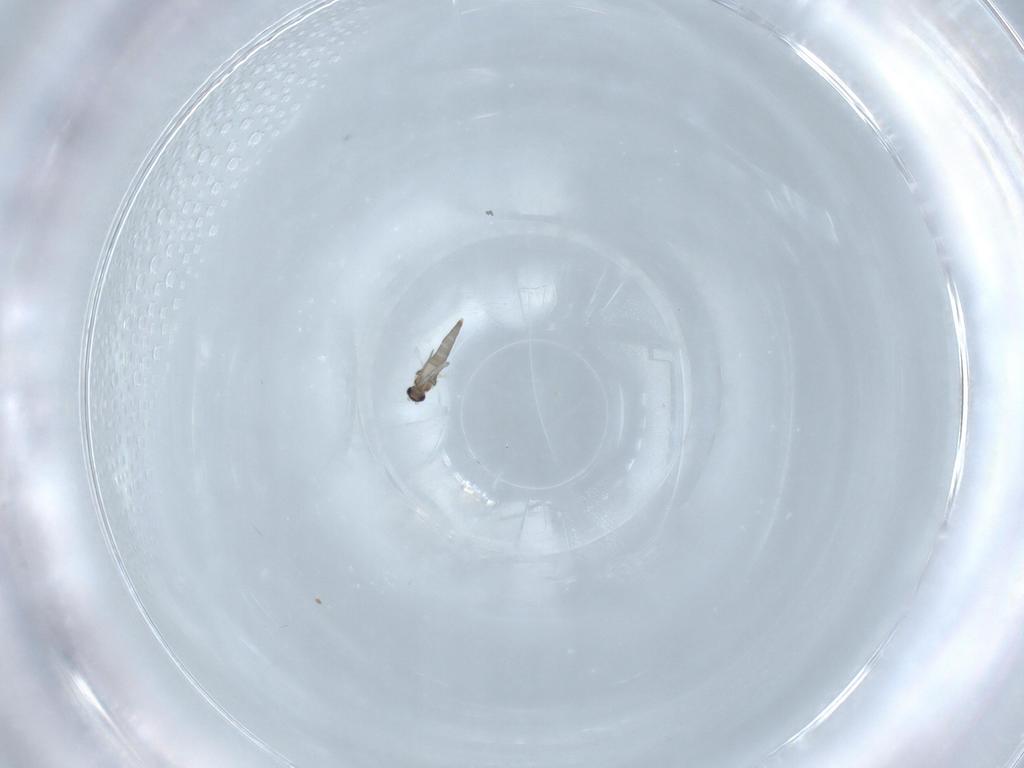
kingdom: Animalia
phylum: Arthropoda
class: Insecta
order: Diptera
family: Cecidomyiidae
